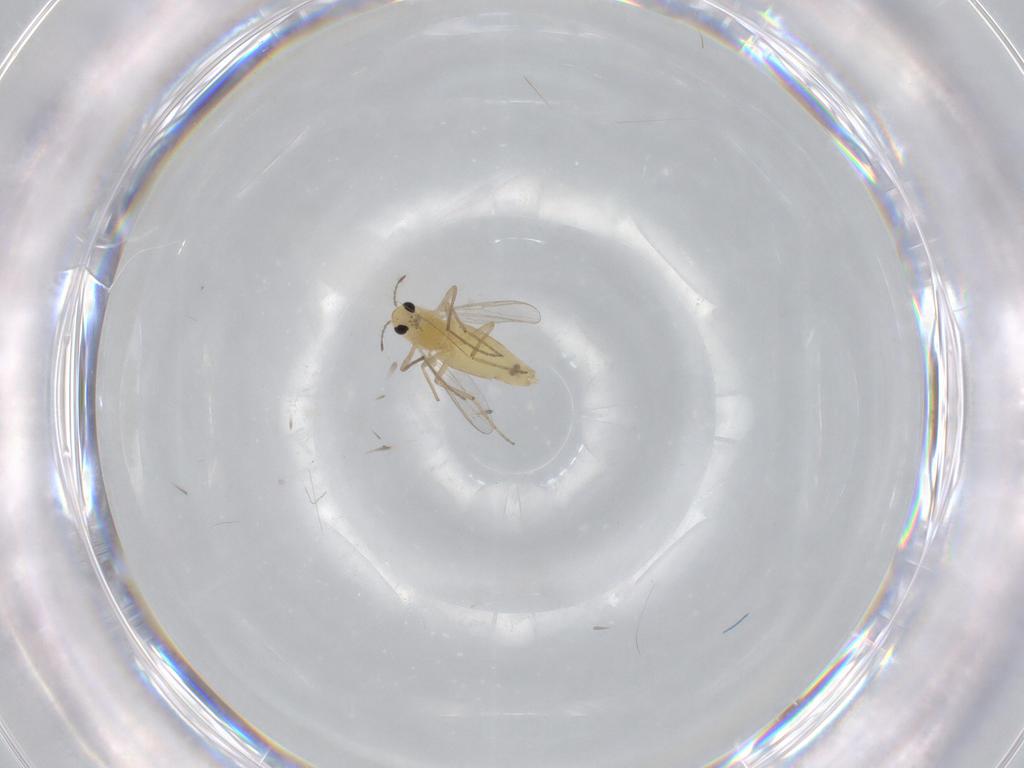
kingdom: Animalia
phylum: Arthropoda
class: Insecta
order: Diptera
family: Chironomidae
